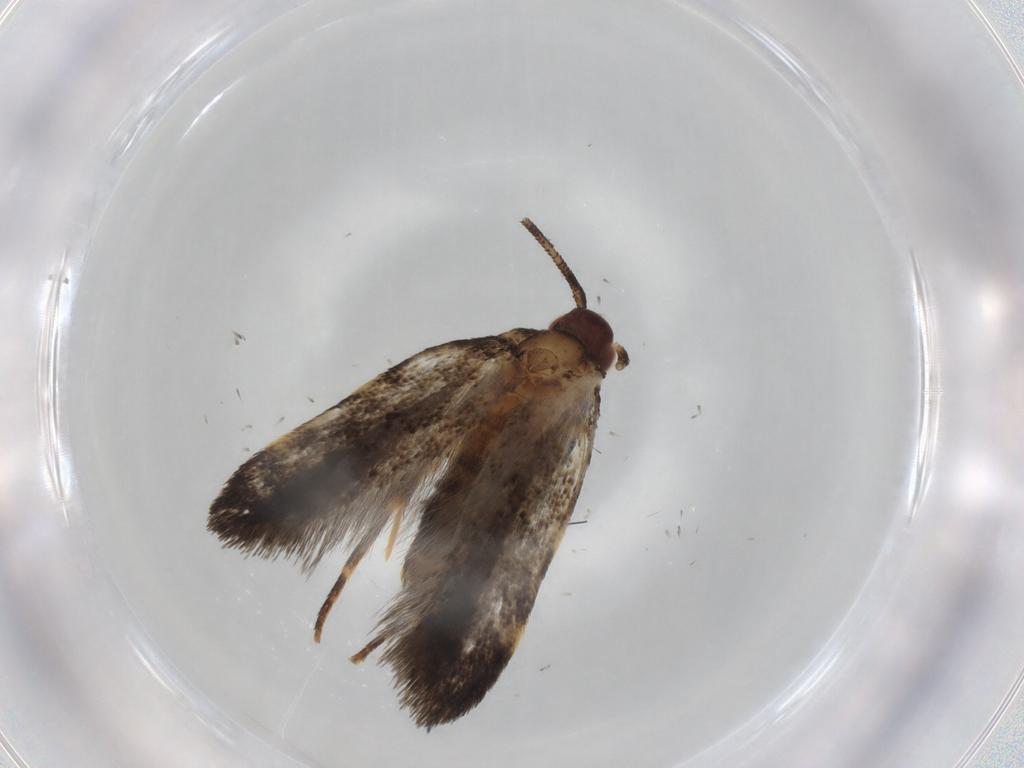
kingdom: Animalia
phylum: Arthropoda
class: Insecta
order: Lepidoptera
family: Autostichidae
